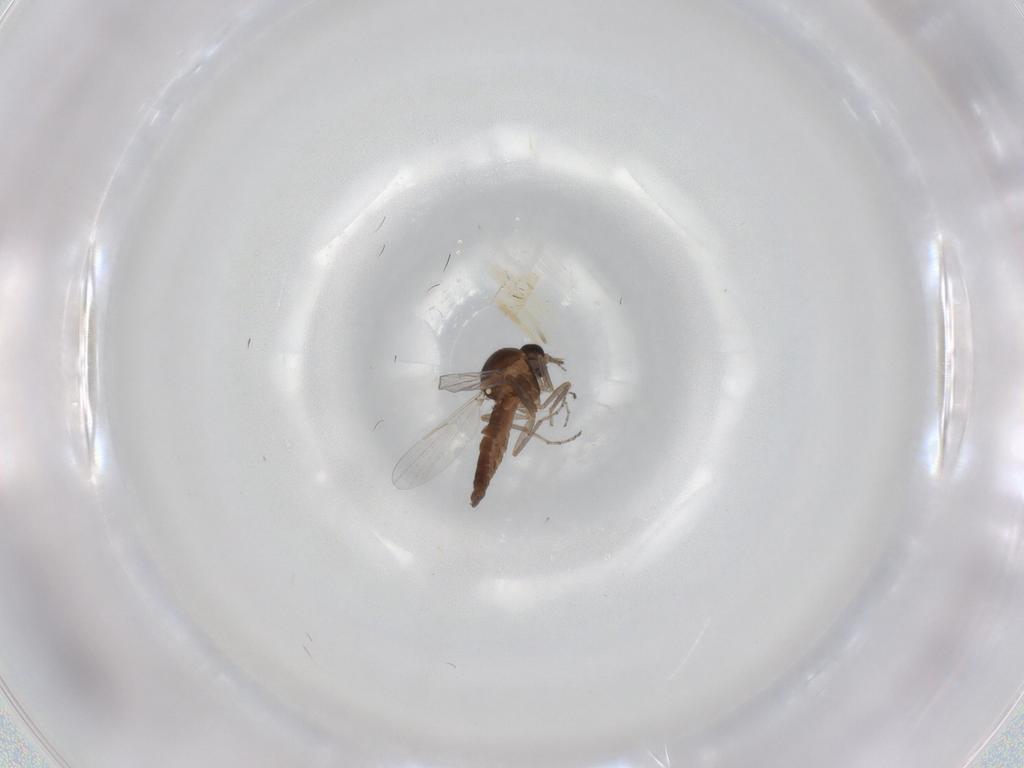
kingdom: Animalia
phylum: Arthropoda
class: Insecta
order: Diptera
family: Ceratopogonidae
